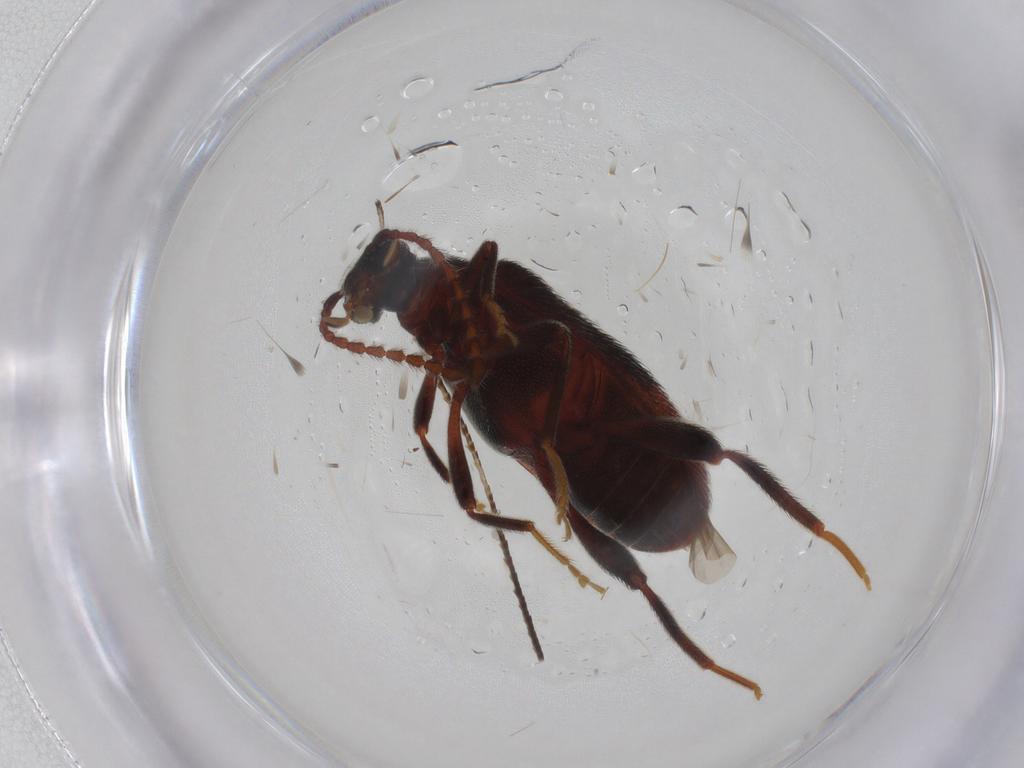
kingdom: Animalia
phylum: Arthropoda
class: Insecta
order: Coleoptera
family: Aderidae
